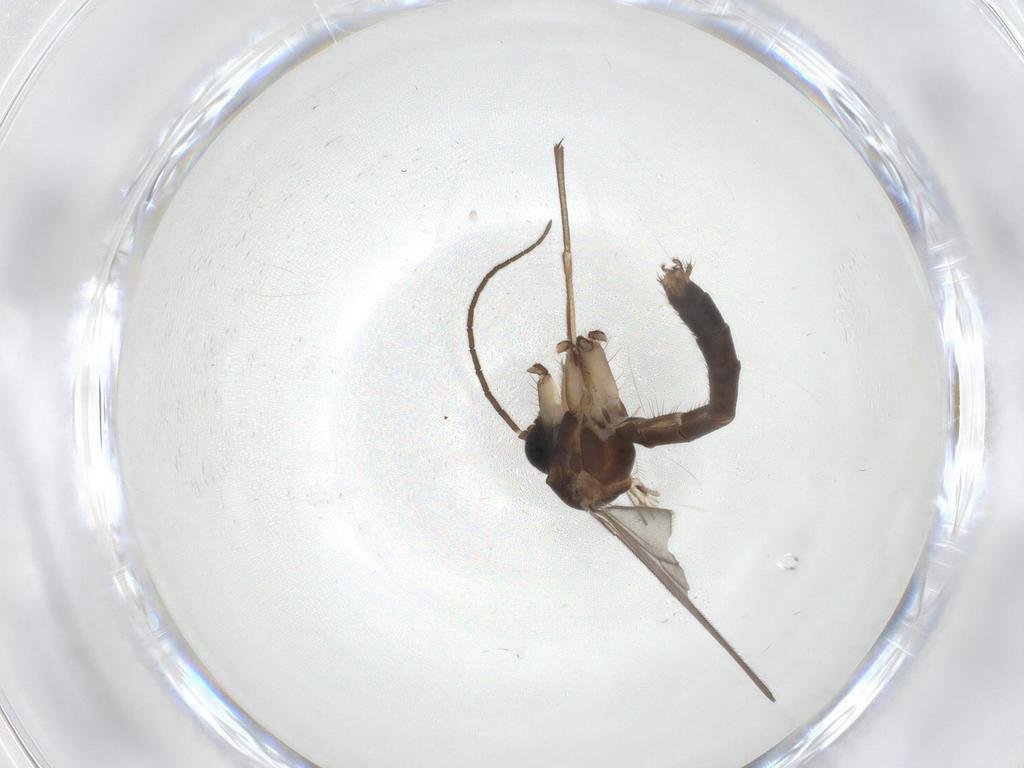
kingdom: Animalia
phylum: Arthropoda
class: Insecta
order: Diptera
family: Mycetophilidae
